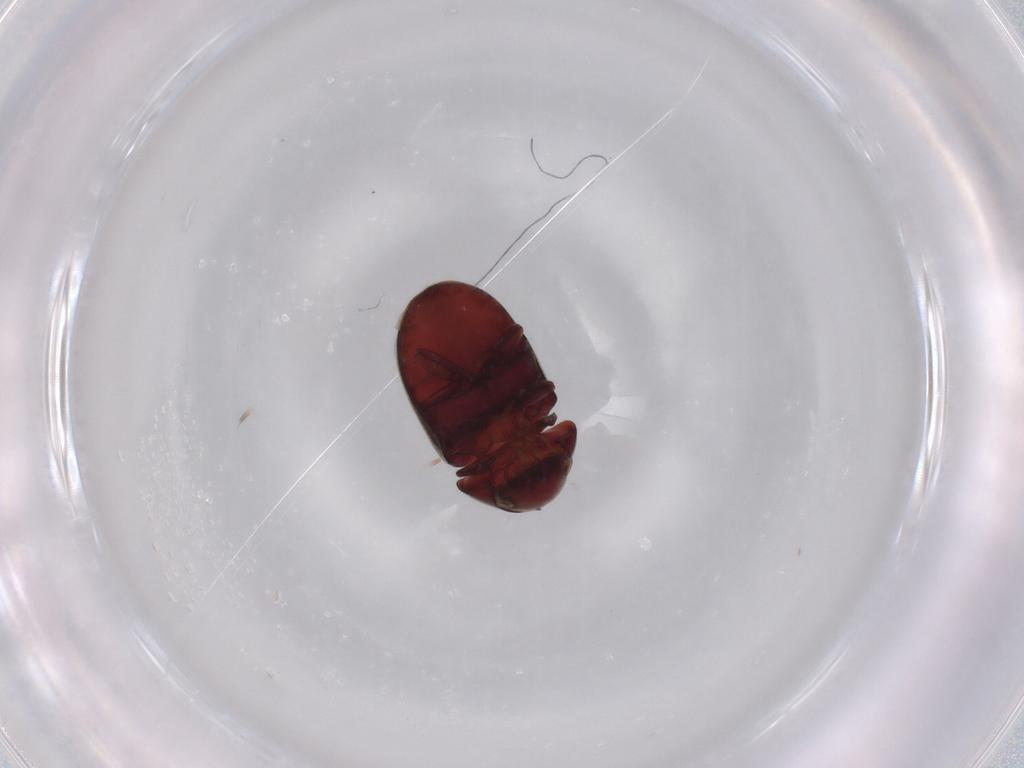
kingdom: Animalia
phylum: Arthropoda
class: Insecta
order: Coleoptera
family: Ptinidae
